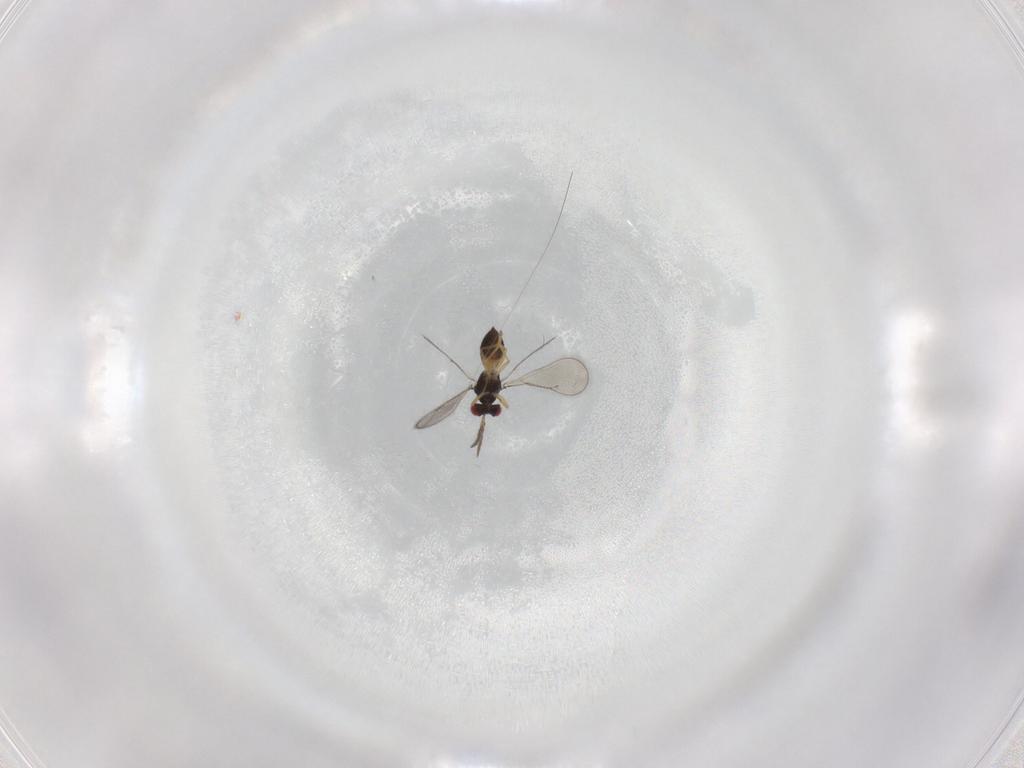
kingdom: Animalia
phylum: Arthropoda
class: Insecta
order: Hymenoptera
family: Eulophidae
